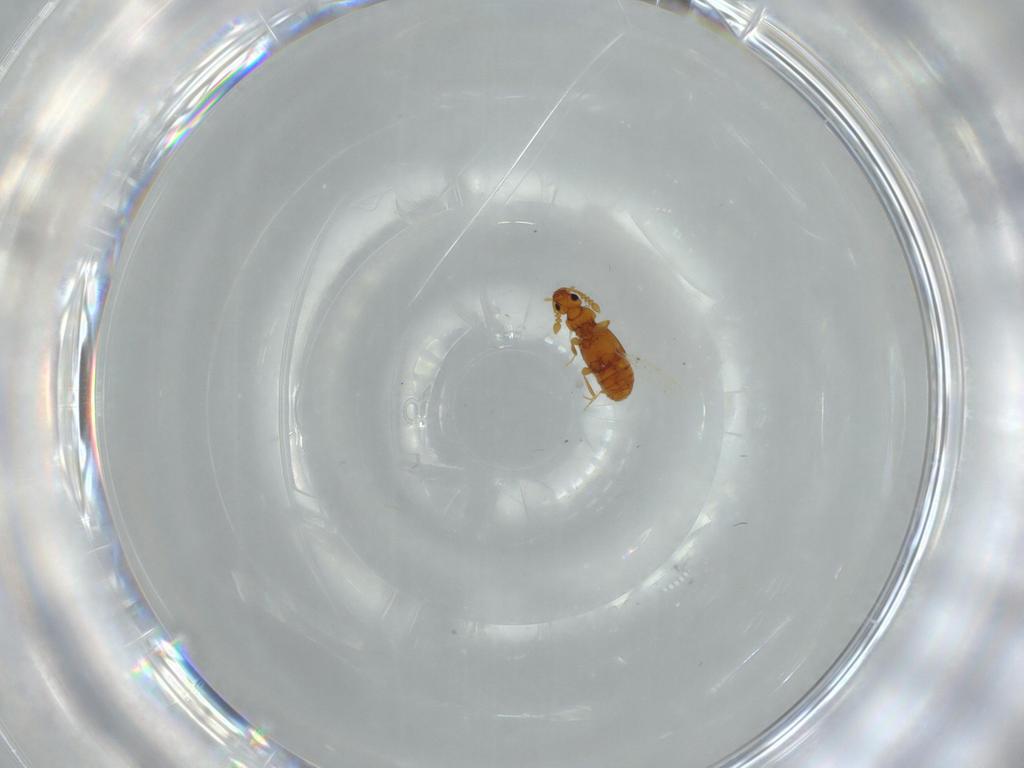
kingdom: Animalia
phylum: Arthropoda
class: Insecta
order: Coleoptera
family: Staphylinidae
